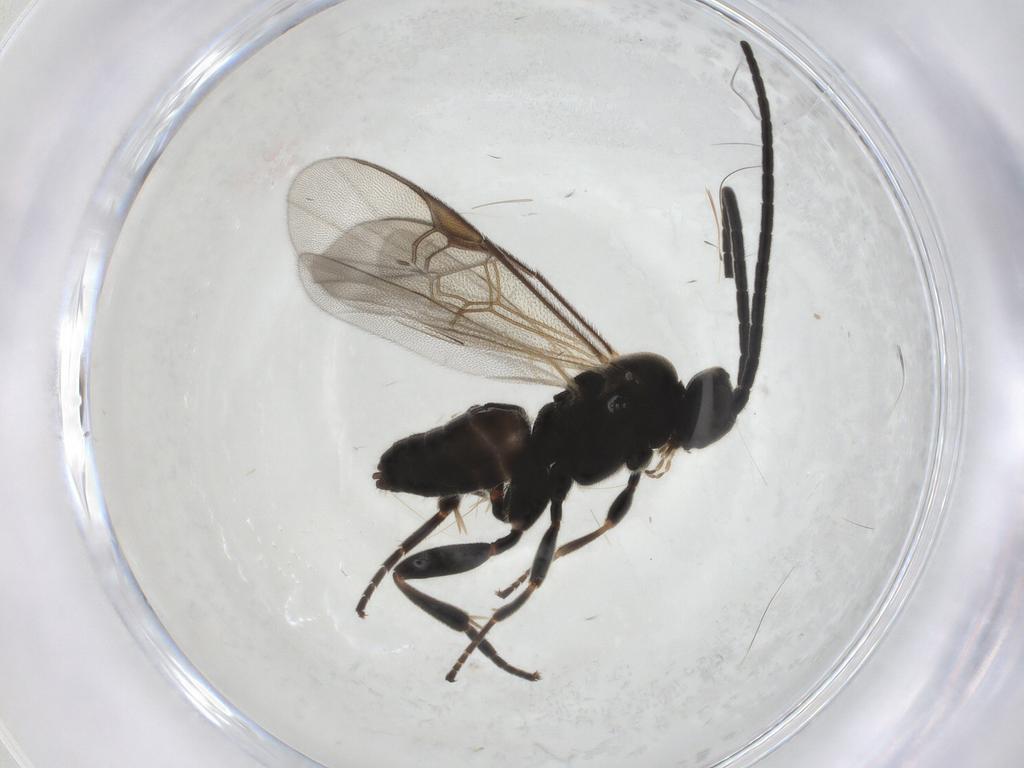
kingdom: Animalia
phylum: Arthropoda
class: Insecta
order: Hymenoptera
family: Braconidae
